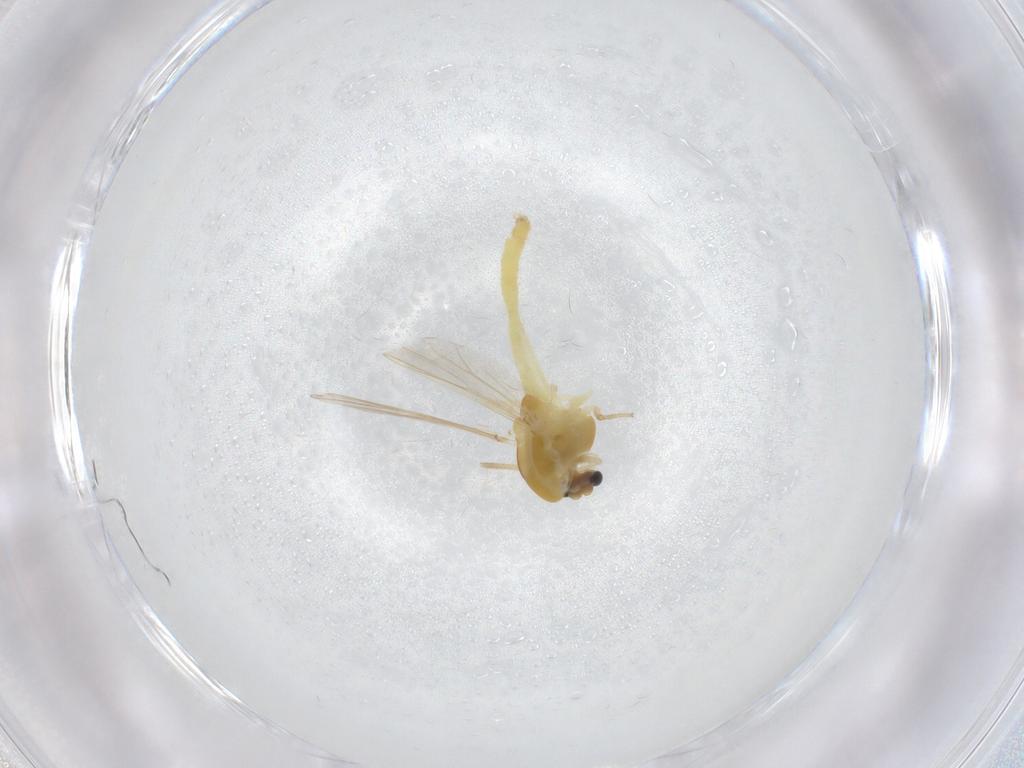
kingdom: Animalia
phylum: Arthropoda
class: Insecta
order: Diptera
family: Chironomidae
